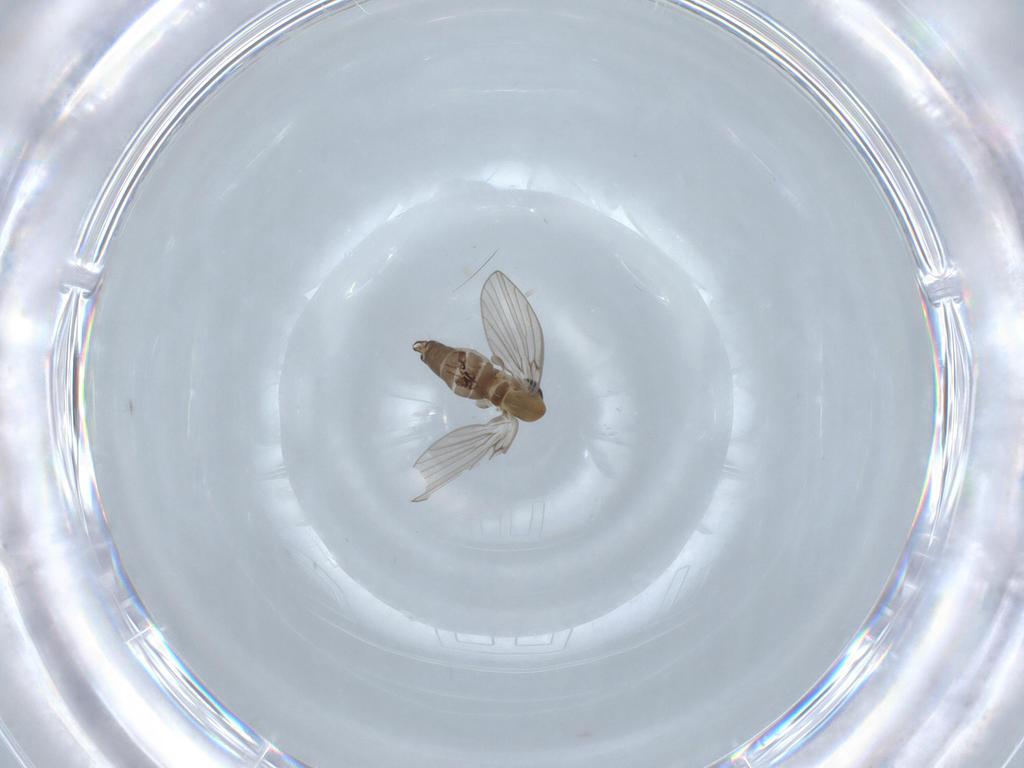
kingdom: Animalia
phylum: Arthropoda
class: Insecta
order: Diptera
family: Psychodidae
